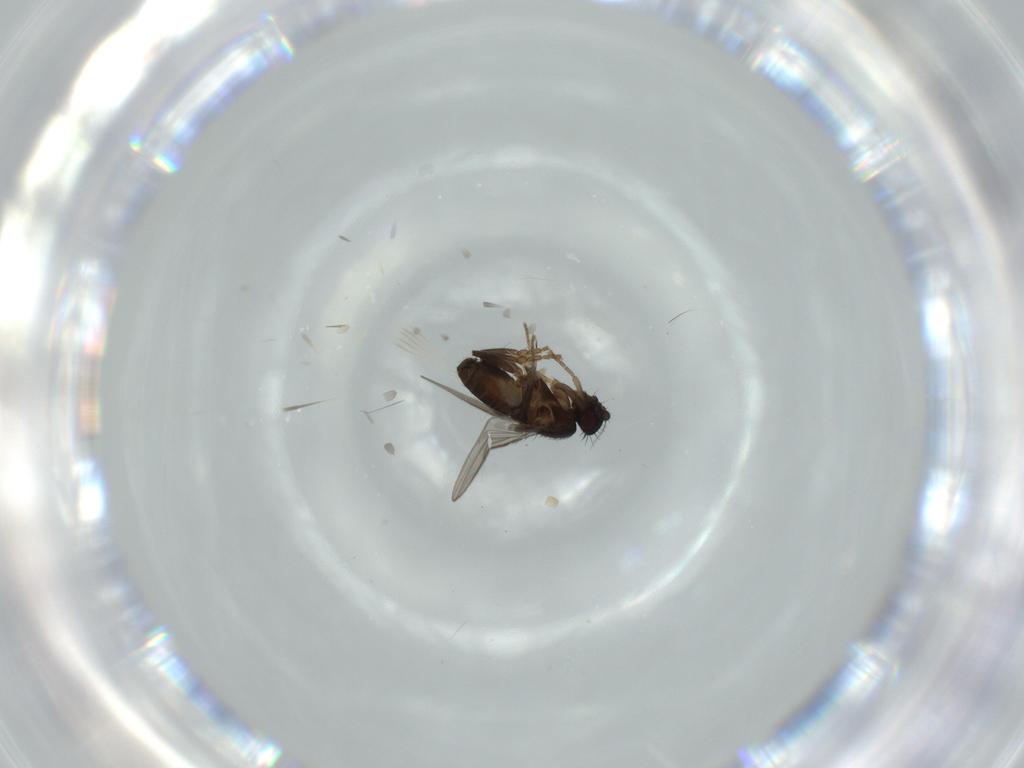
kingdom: Animalia
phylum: Arthropoda
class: Insecta
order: Diptera
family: Sphaeroceridae
